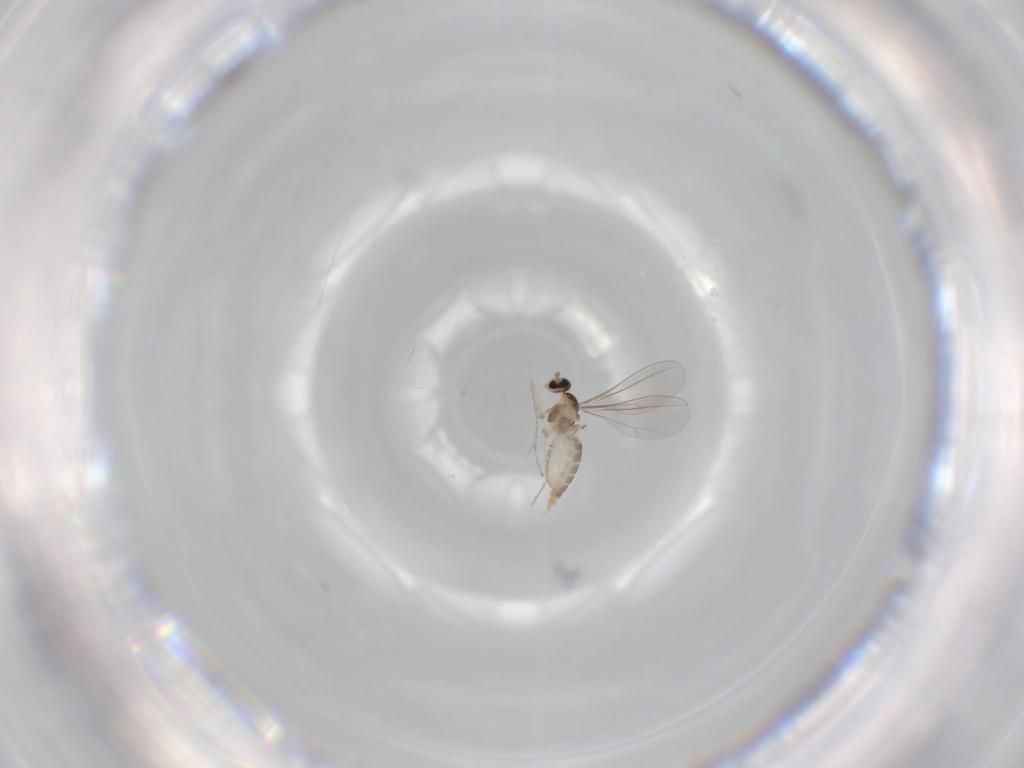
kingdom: Animalia
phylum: Arthropoda
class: Insecta
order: Diptera
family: Cecidomyiidae
